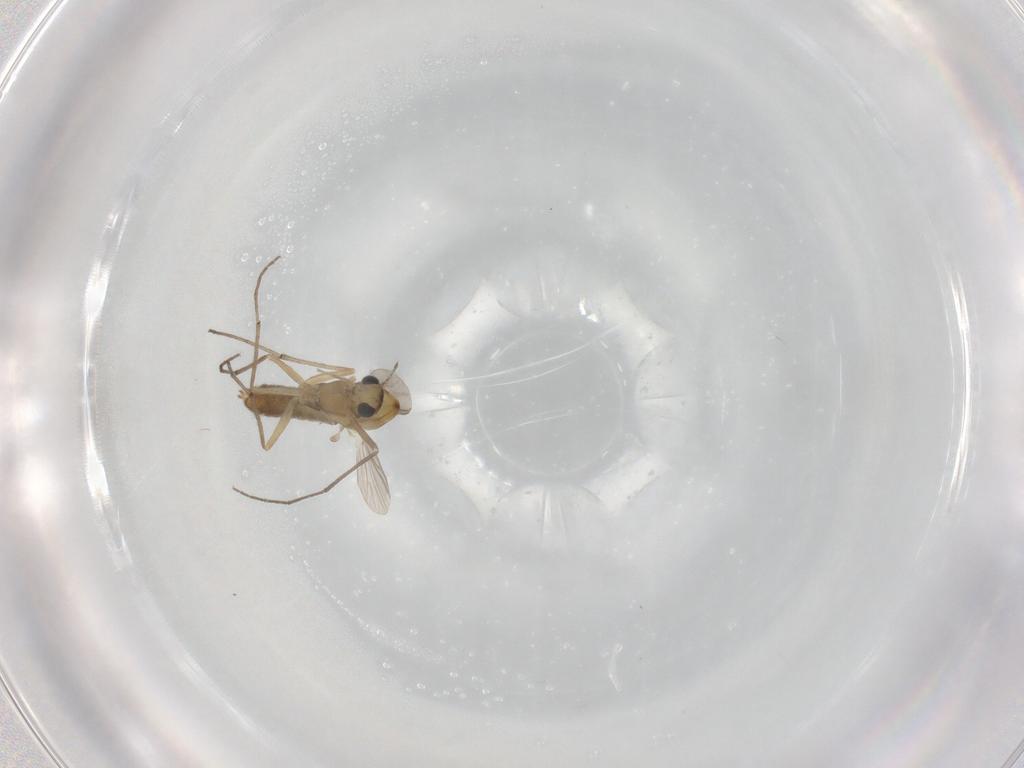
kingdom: Animalia
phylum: Arthropoda
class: Insecta
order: Diptera
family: Chironomidae
